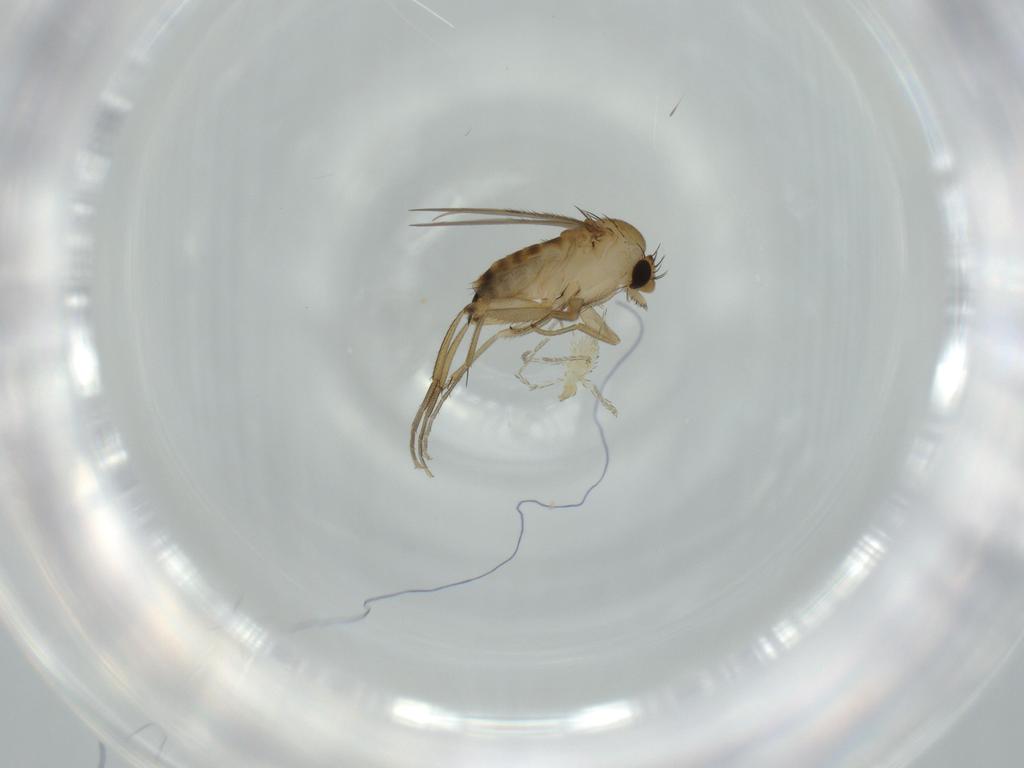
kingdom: Animalia
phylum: Arthropoda
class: Insecta
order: Diptera
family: Phoridae
